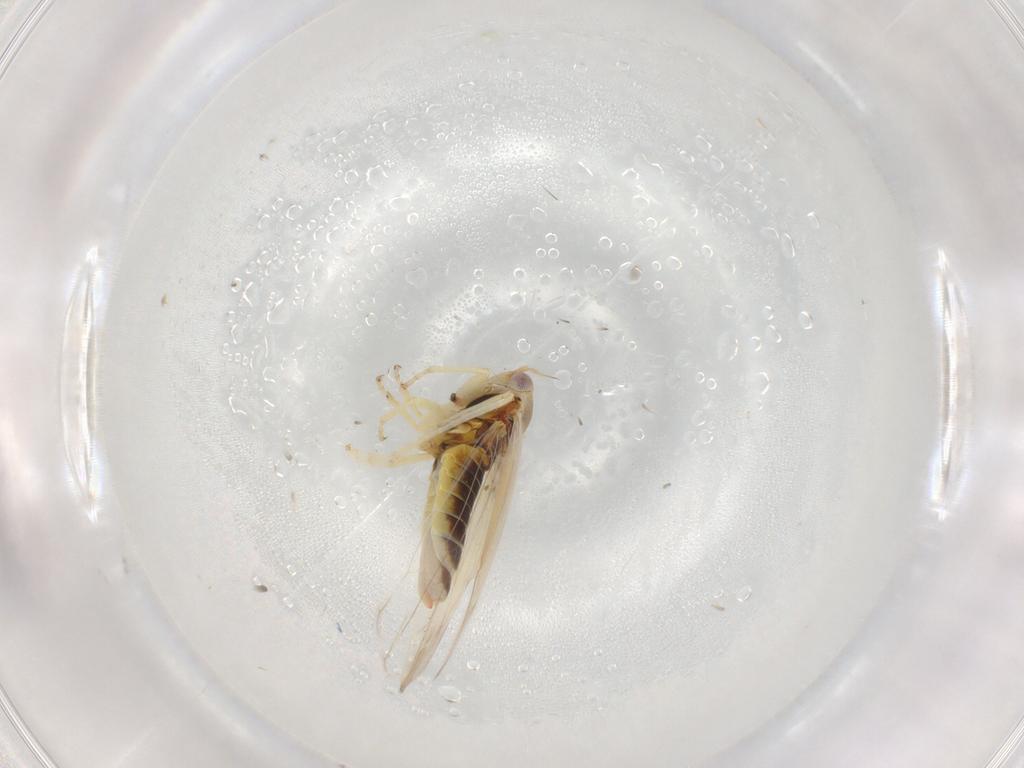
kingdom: Animalia
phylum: Arthropoda
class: Insecta
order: Hemiptera
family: Cicadellidae
